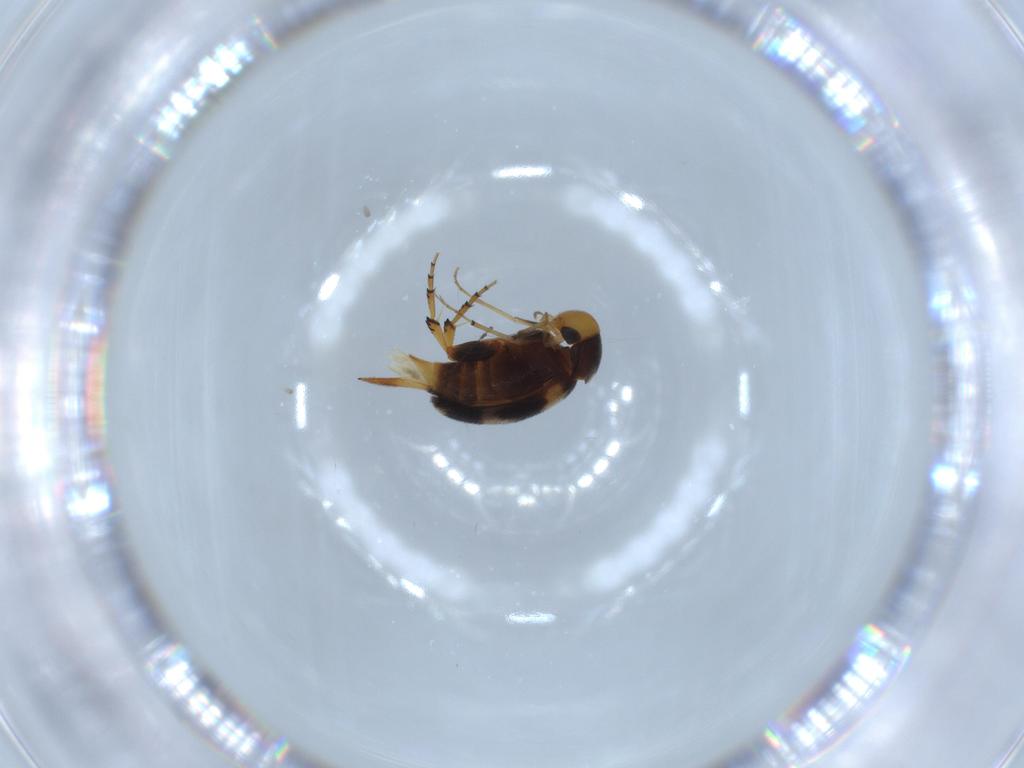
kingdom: Animalia
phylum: Arthropoda
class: Insecta
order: Coleoptera
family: Mordellidae
